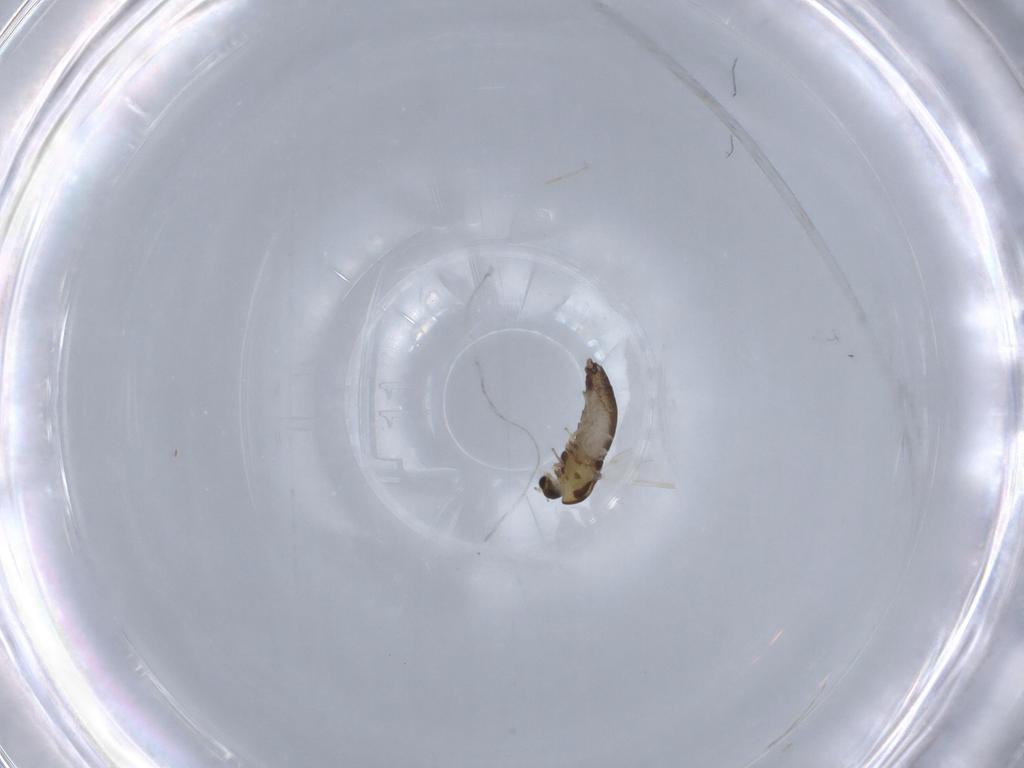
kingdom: Animalia
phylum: Arthropoda
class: Insecta
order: Diptera
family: Chironomidae
